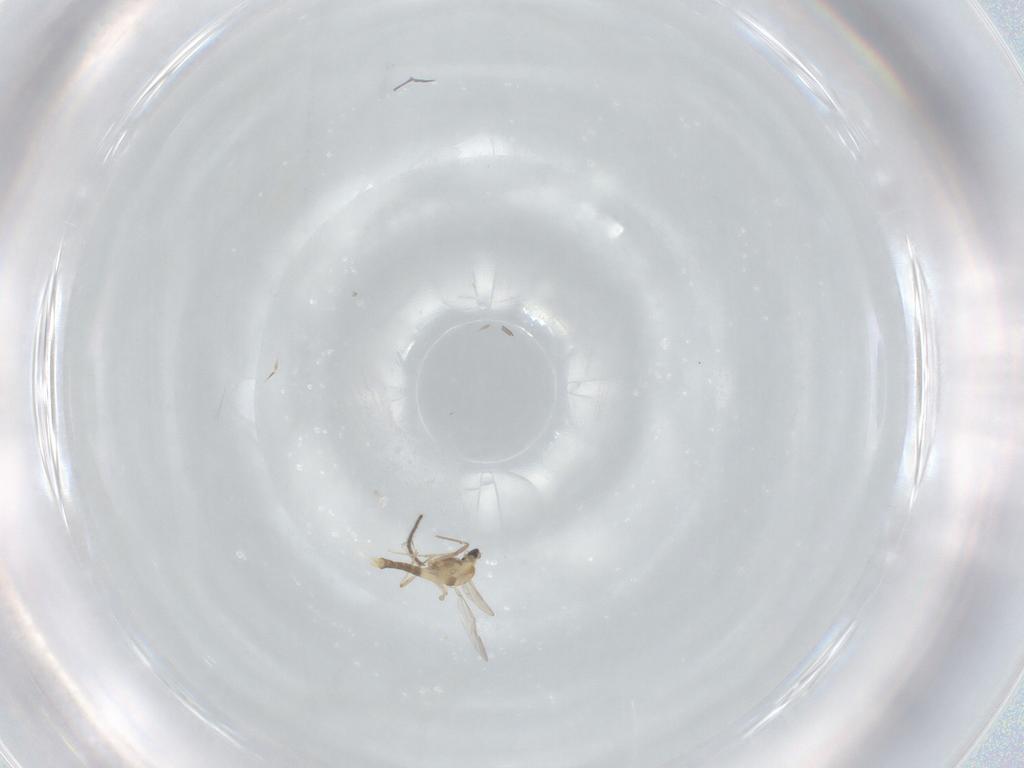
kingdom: Animalia
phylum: Arthropoda
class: Insecta
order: Diptera
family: Chironomidae
